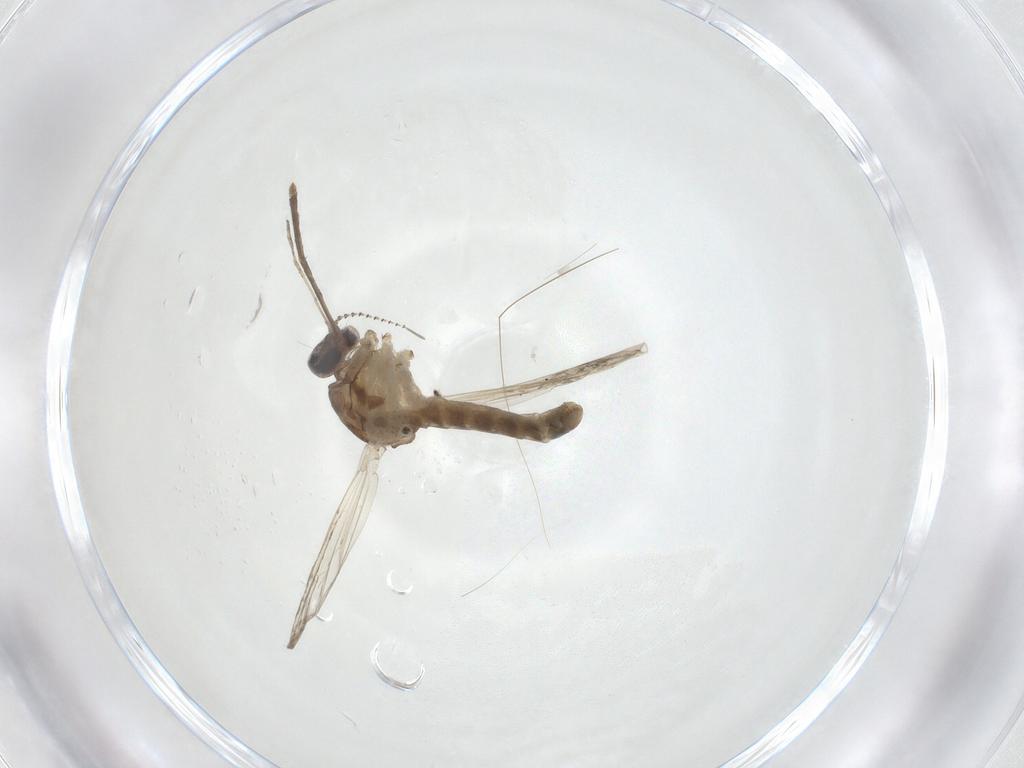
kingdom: Animalia
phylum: Arthropoda
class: Insecta
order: Diptera
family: Culicidae
